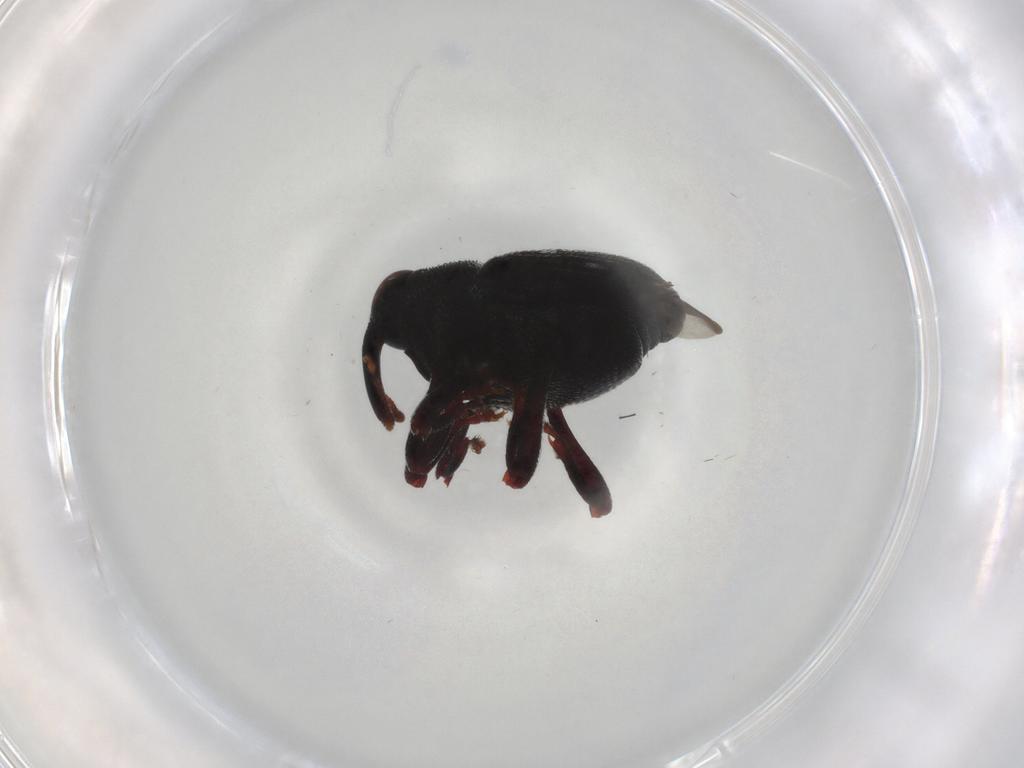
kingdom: Animalia
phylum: Arthropoda
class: Insecta
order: Coleoptera
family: Curculionidae
